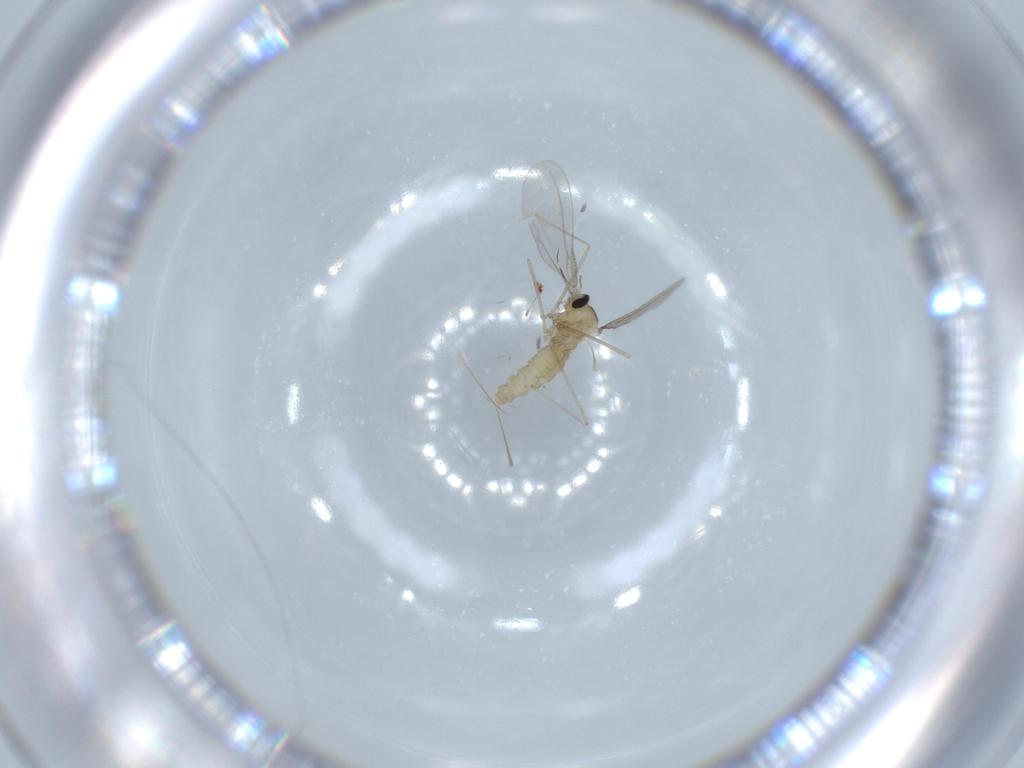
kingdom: Animalia
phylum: Arthropoda
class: Insecta
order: Diptera
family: Cecidomyiidae
